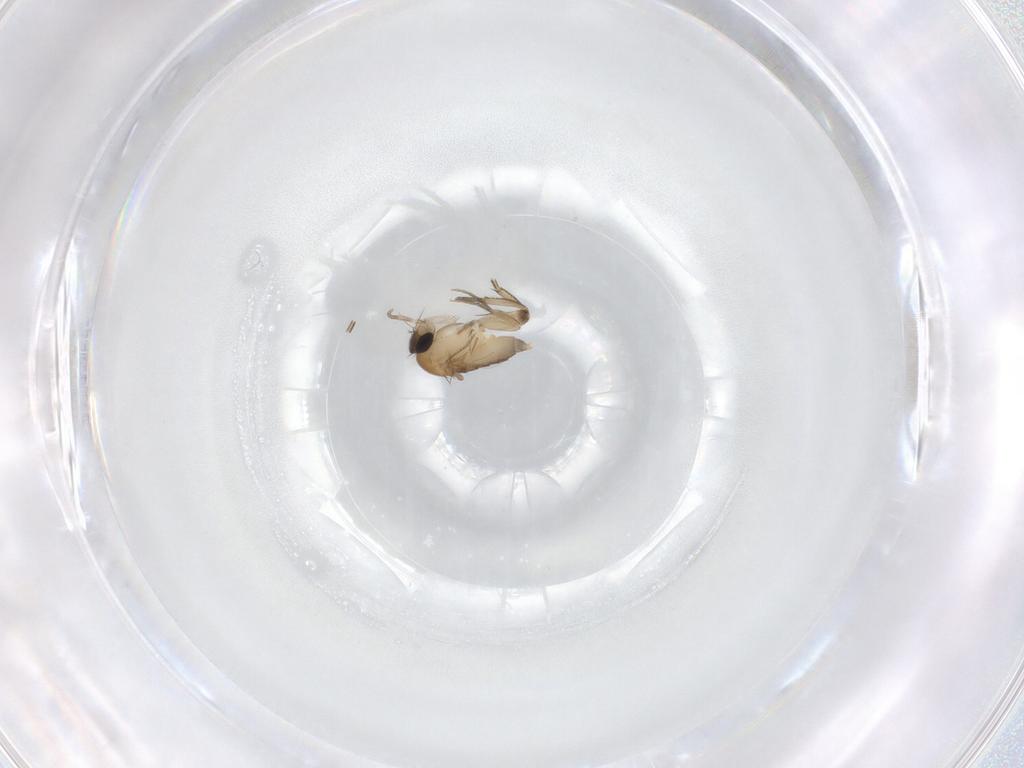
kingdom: Animalia
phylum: Arthropoda
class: Insecta
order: Diptera
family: Phoridae
